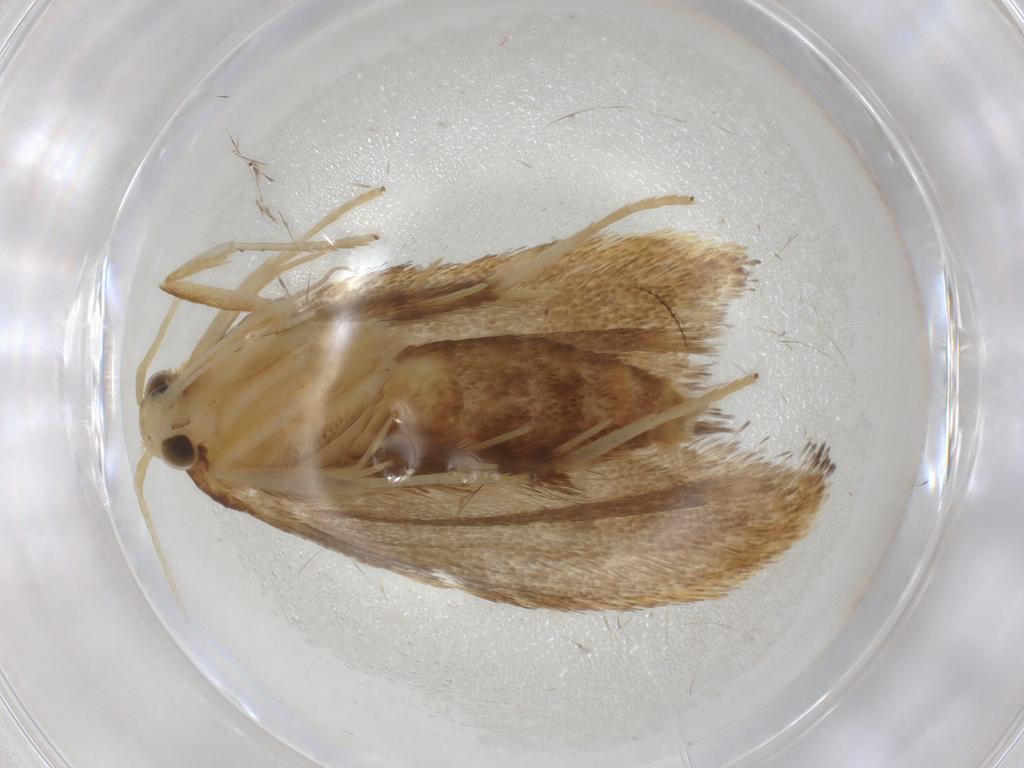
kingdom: Animalia
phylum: Arthropoda
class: Insecta
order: Lepidoptera
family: Lecithoceridae
